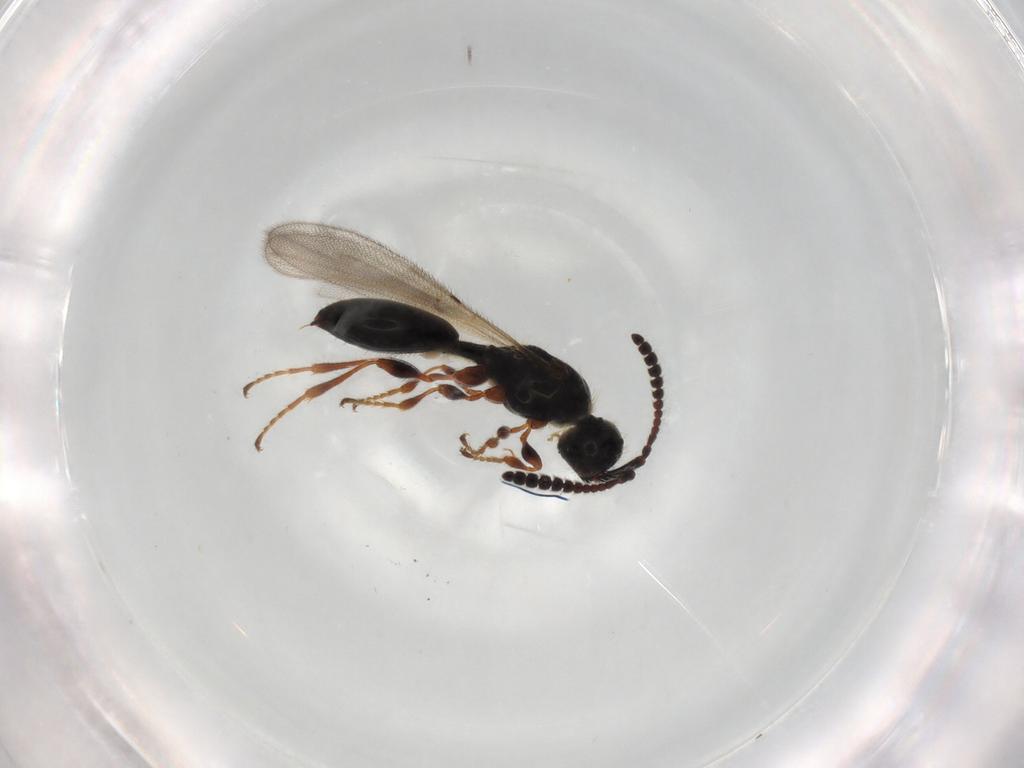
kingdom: Animalia
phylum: Arthropoda
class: Insecta
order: Hymenoptera
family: Diapriidae
